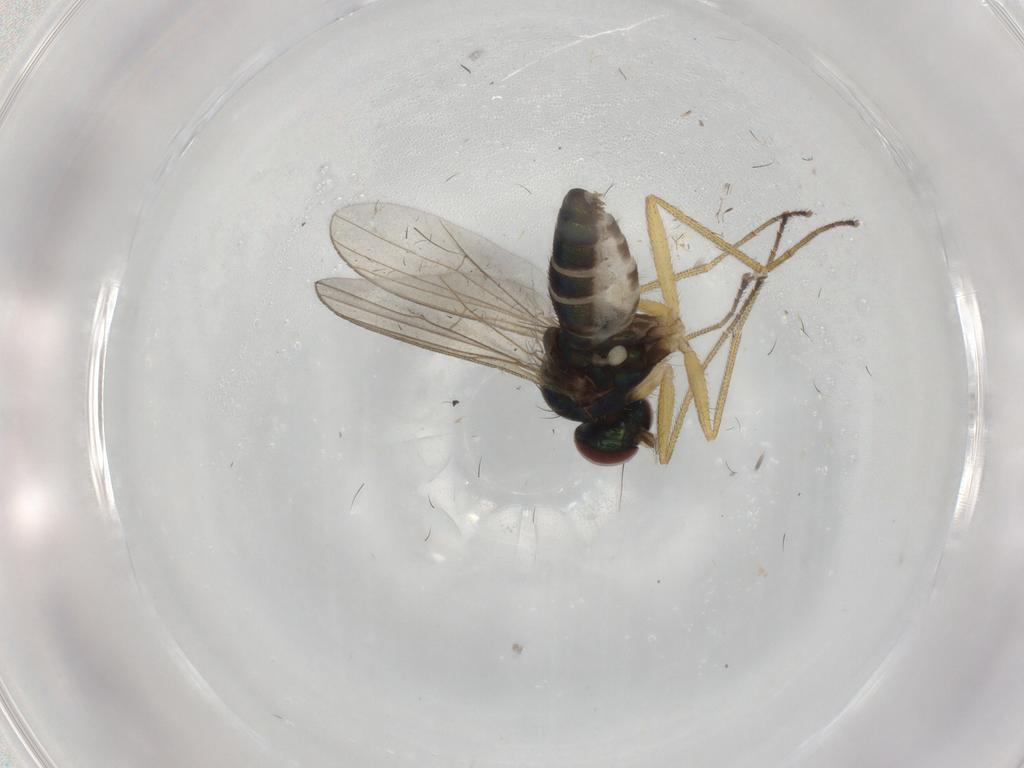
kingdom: Animalia
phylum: Arthropoda
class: Insecta
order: Diptera
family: Dolichopodidae
